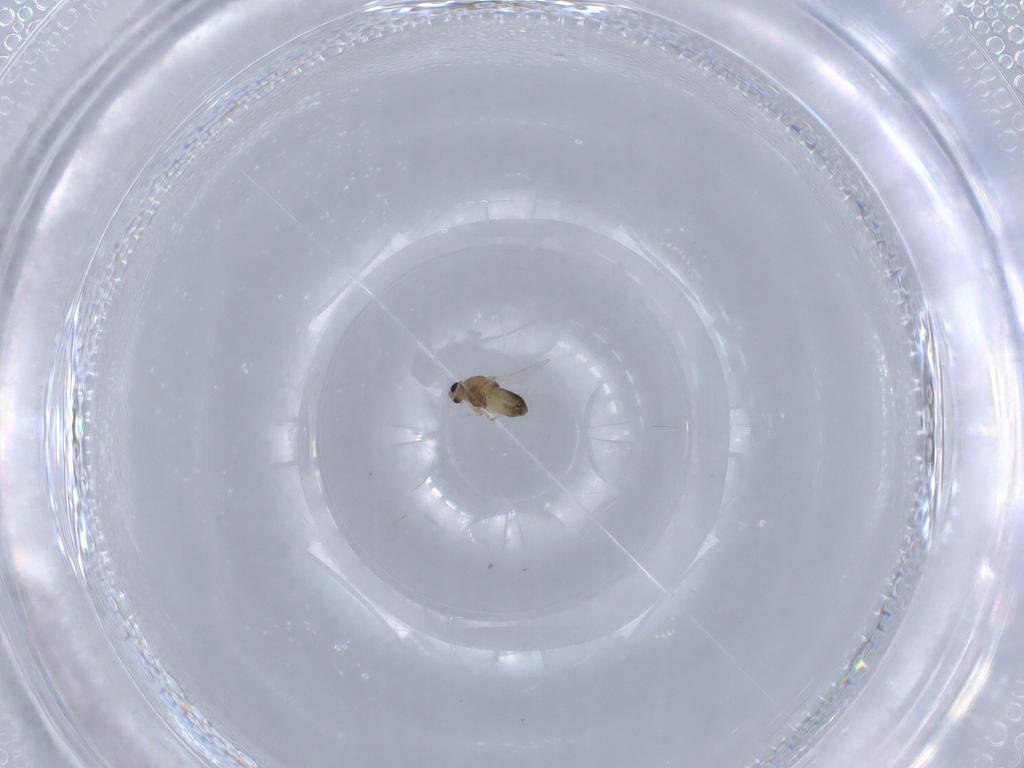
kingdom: Animalia
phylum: Arthropoda
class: Insecta
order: Diptera
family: Chironomidae
